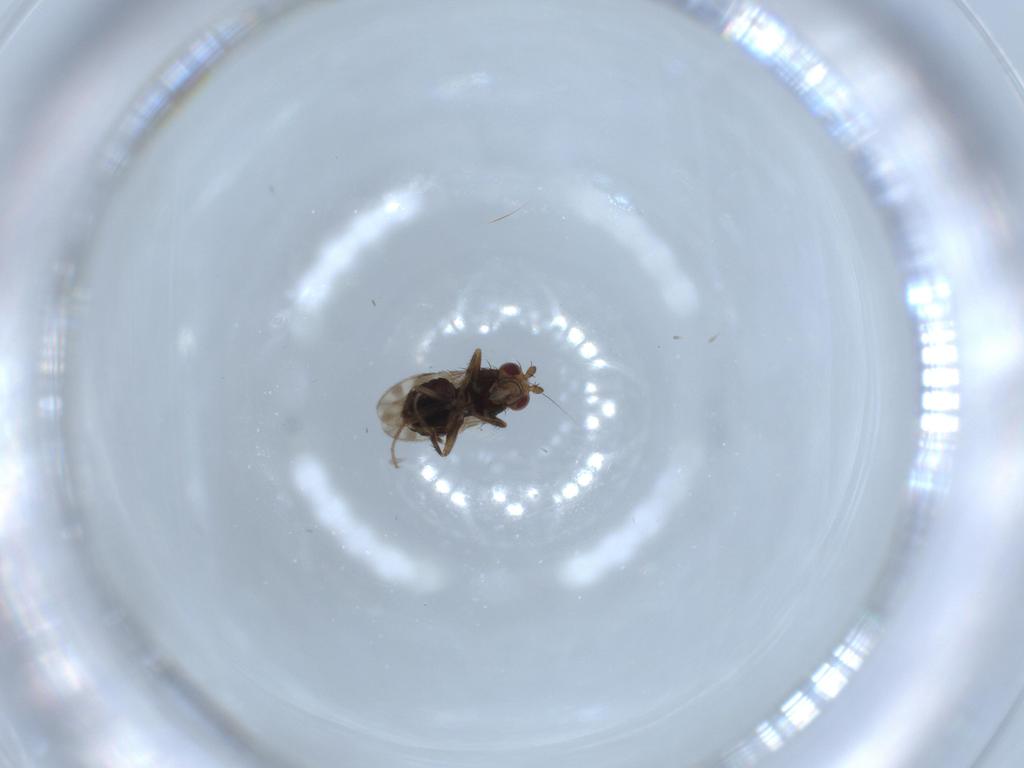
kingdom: Animalia
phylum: Arthropoda
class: Insecta
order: Diptera
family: Sphaeroceridae
